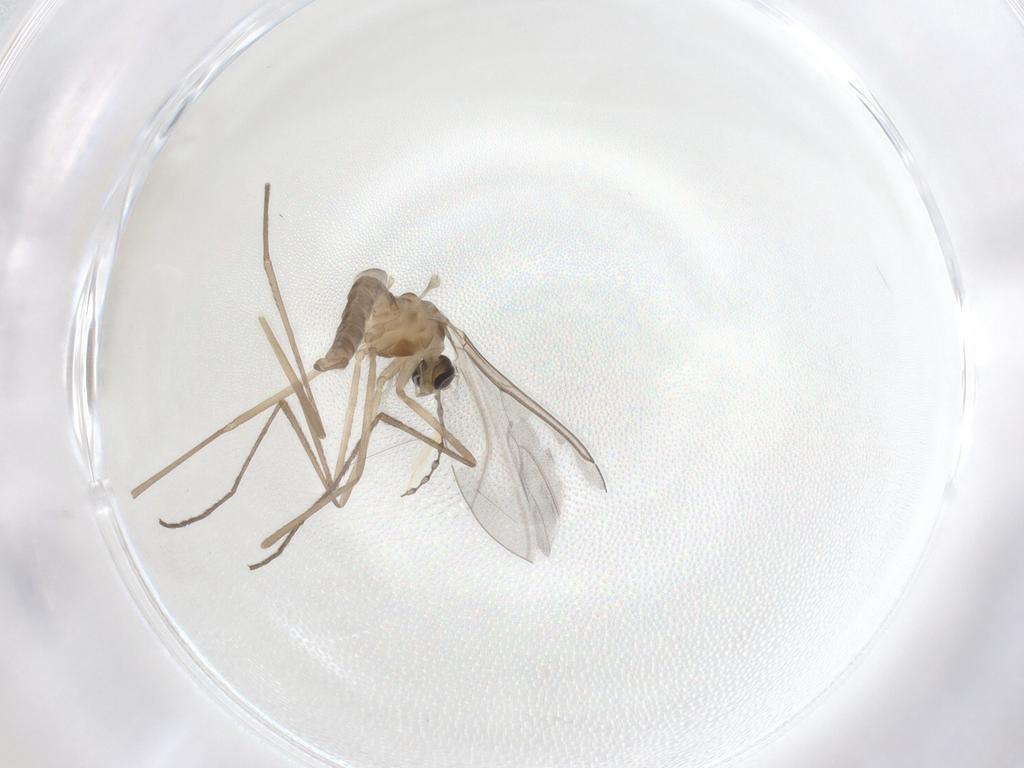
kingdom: Animalia
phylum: Arthropoda
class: Insecta
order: Diptera
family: Cecidomyiidae
